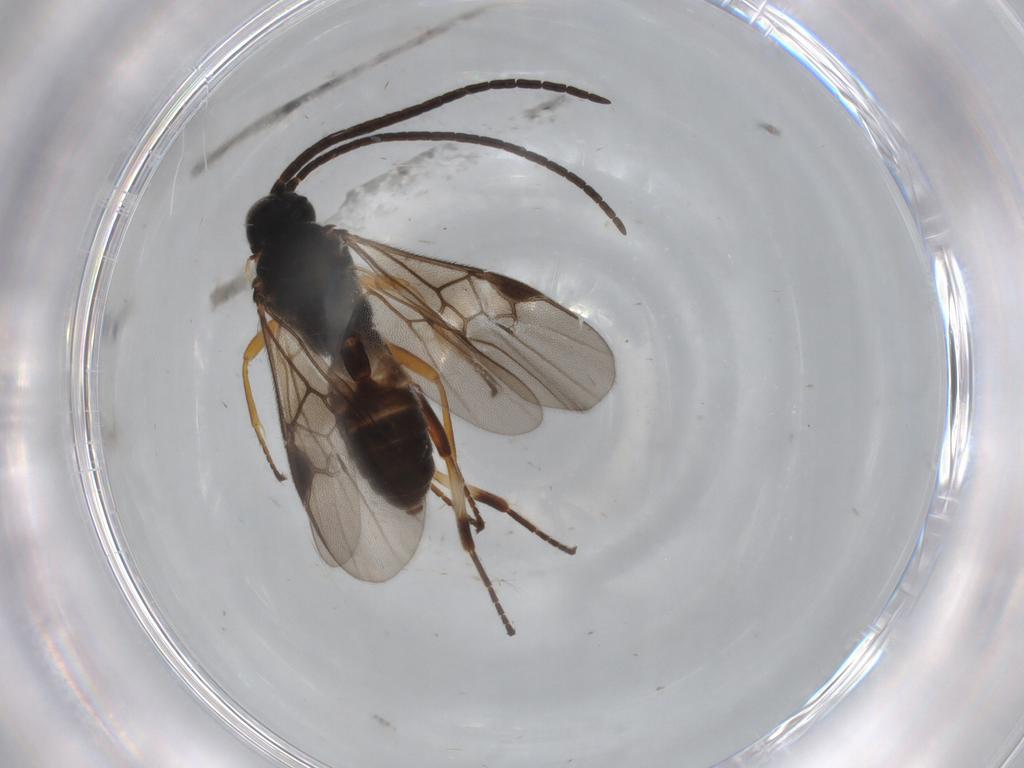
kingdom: Animalia
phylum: Arthropoda
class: Insecta
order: Hymenoptera
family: Braconidae
